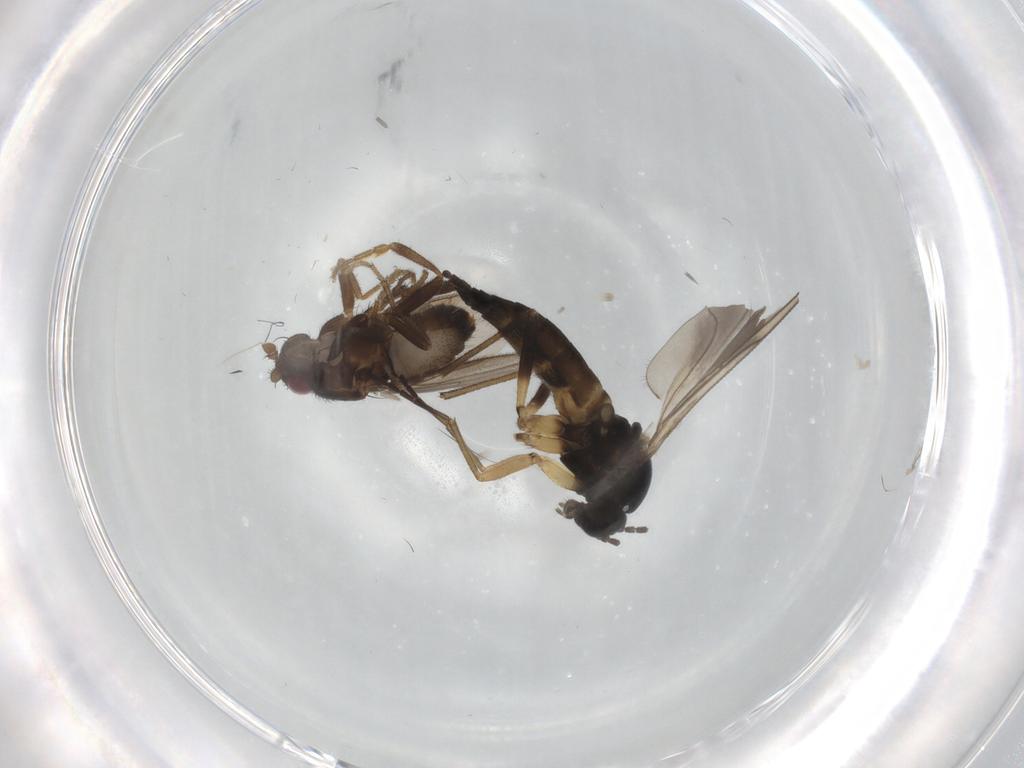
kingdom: Animalia
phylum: Arthropoda
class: Insecta
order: Diptera
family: Sphaeroceridae
